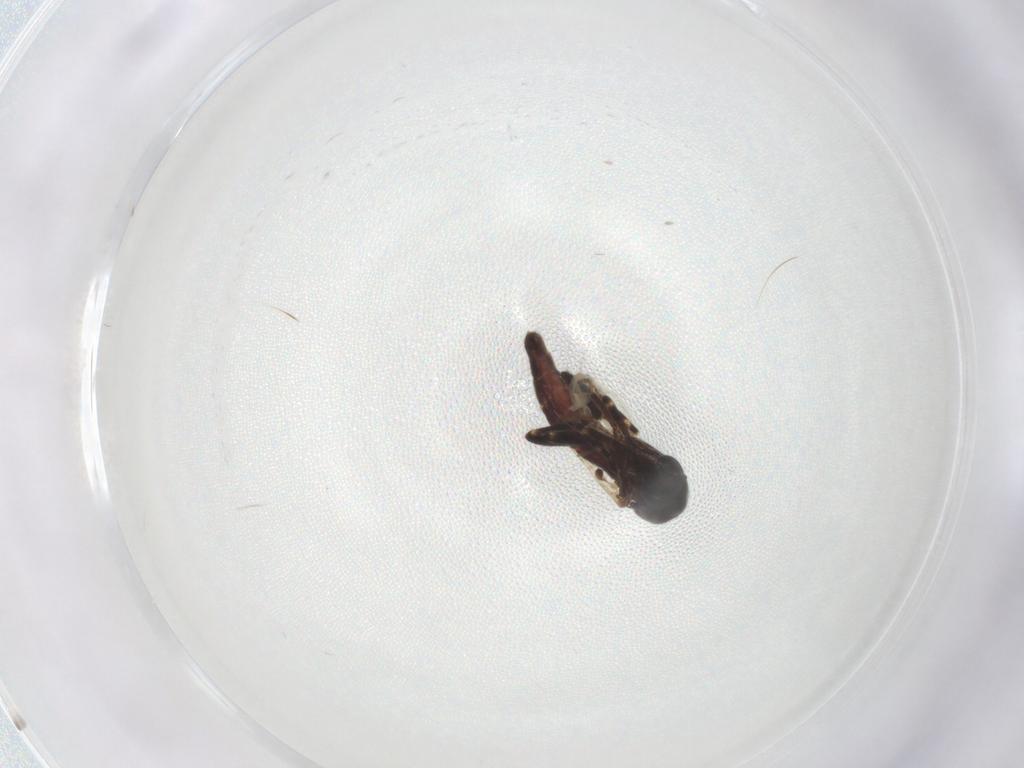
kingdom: Animalia
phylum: Arthropoda
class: Insecta
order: Diptera
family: Ceratopogonidae
